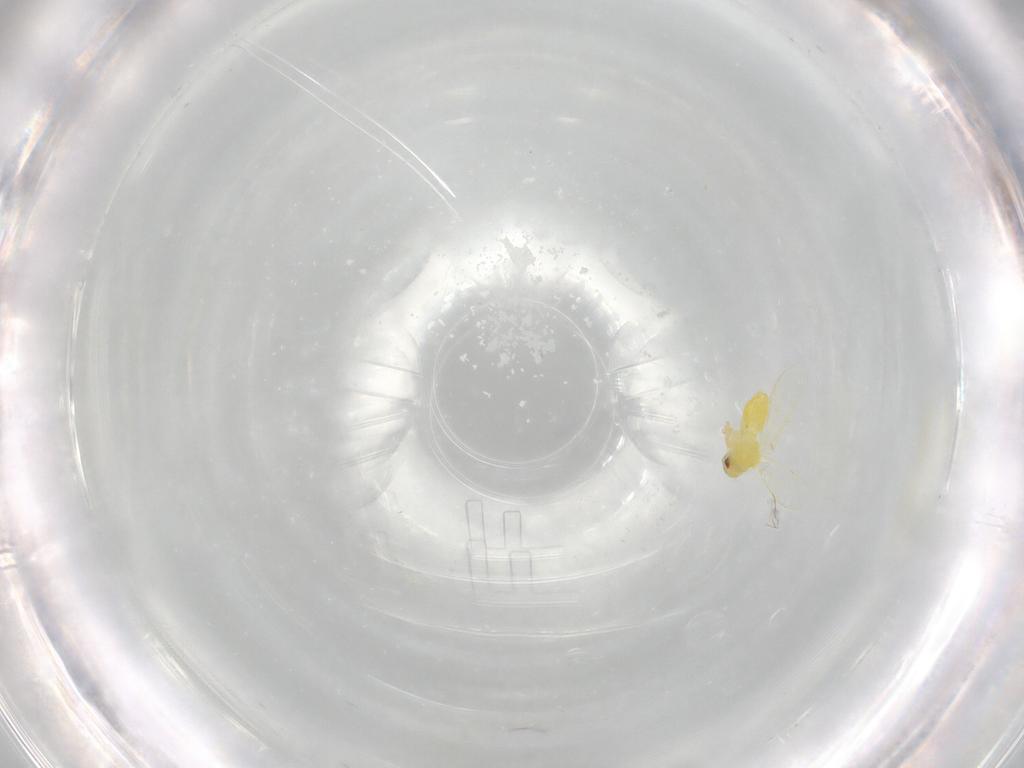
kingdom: Animalia
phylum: Arthropoda
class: Insecta
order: Hemiptera
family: Aleyrodidae
